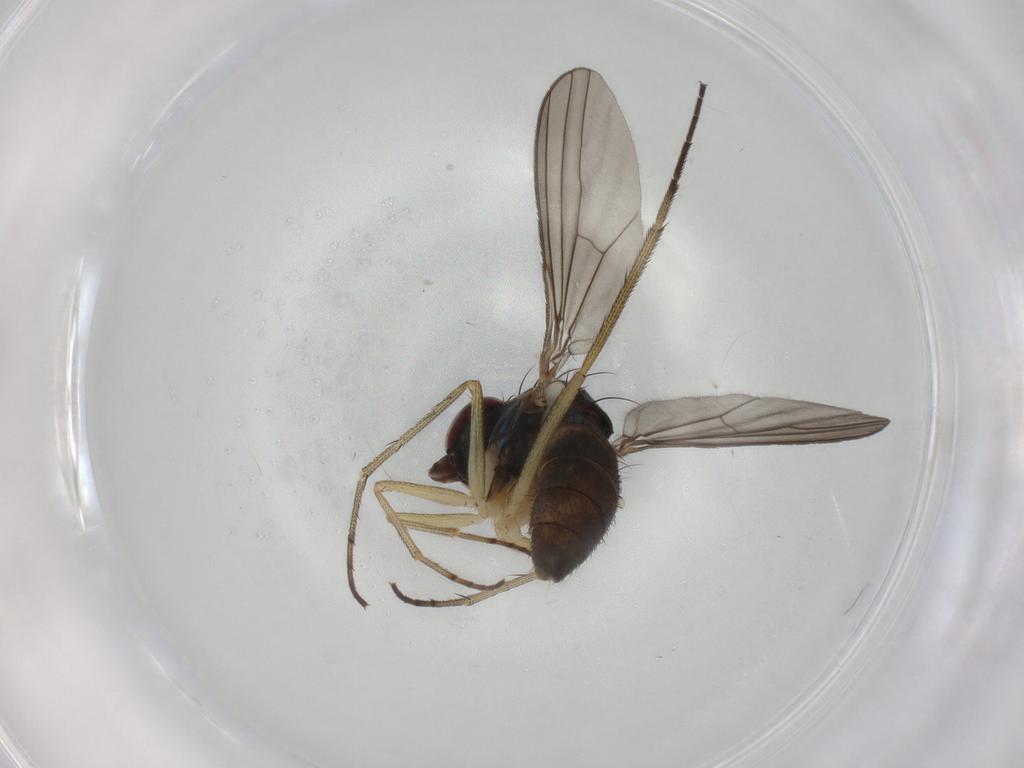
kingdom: Animalia
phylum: Arthropoda
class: Insecta
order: Diptera
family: Dolichopodidae
